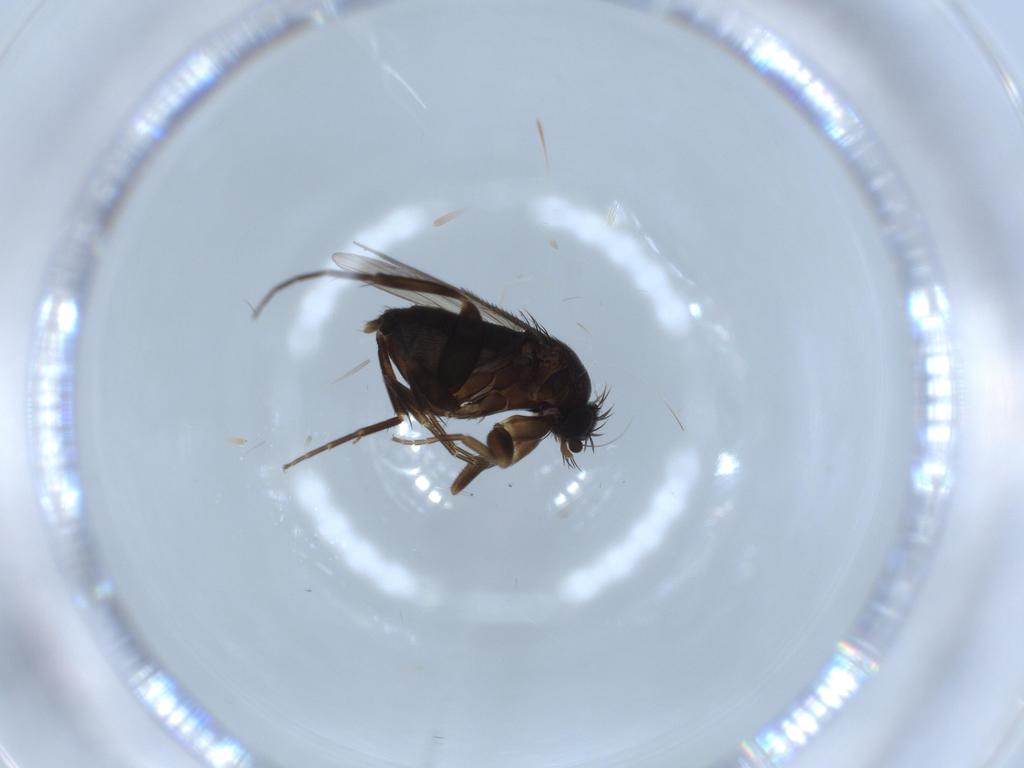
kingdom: Animalia
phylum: Arthropoda
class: Insecta
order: Diptera
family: Phoridae
